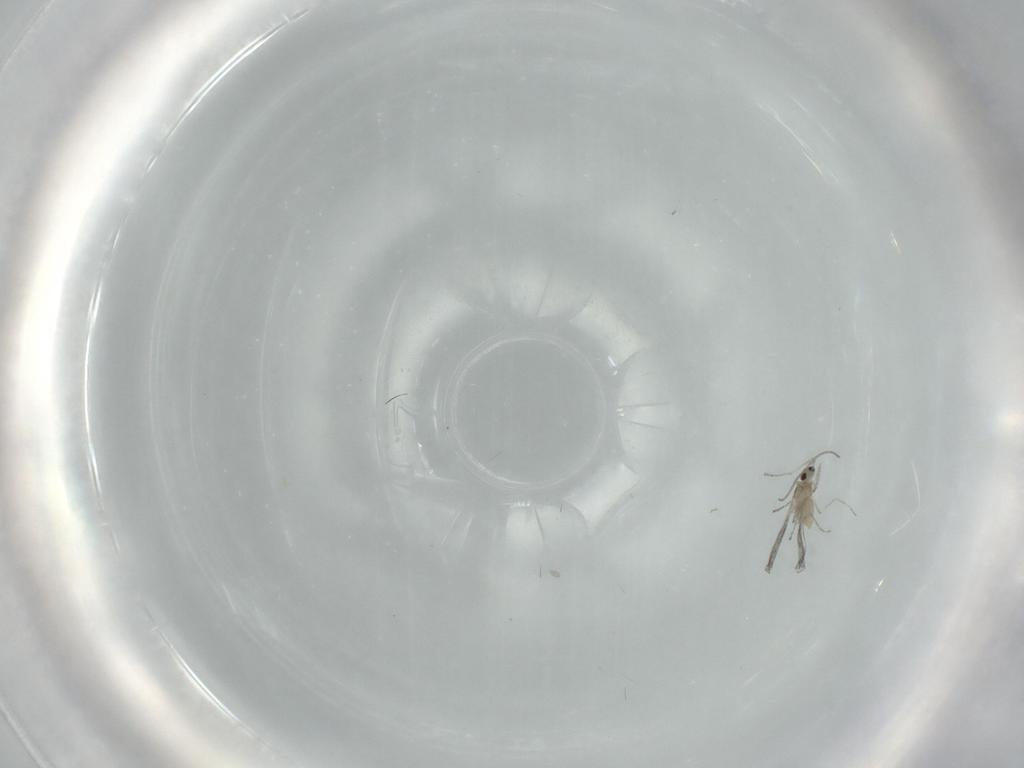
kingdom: Animalia
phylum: Arthropoda
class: Insecta
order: Diptera
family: Cecidomyiidae
